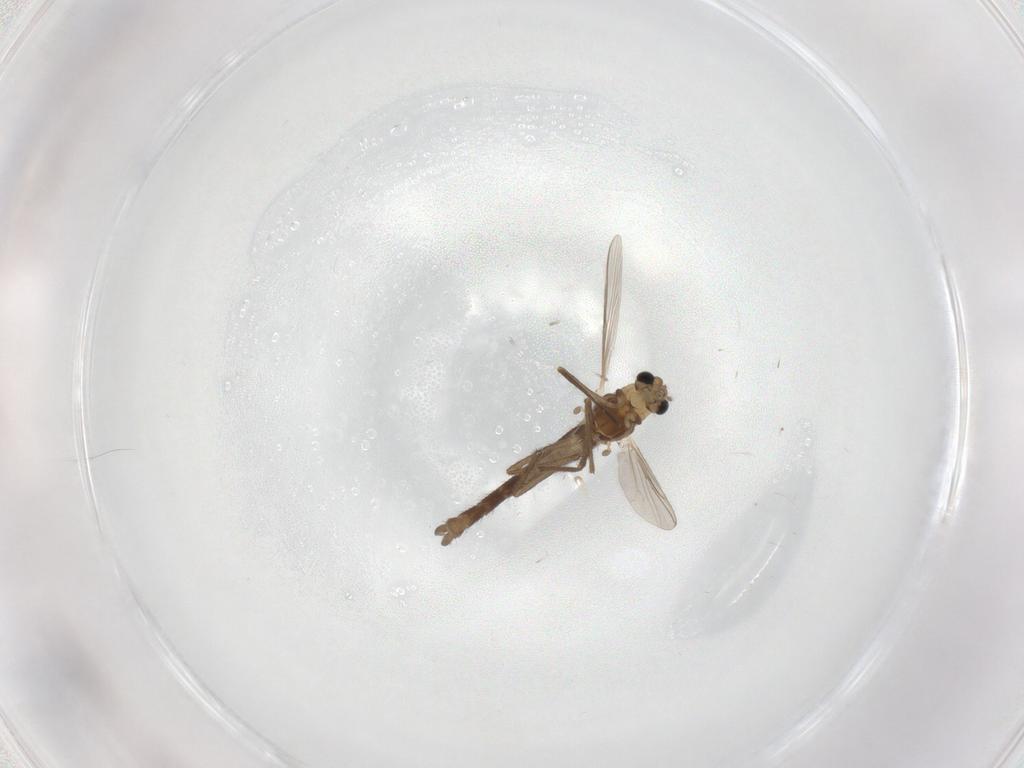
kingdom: Animalia
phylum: Arthropoda
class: Insecta
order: Diptera
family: Chironomidae
